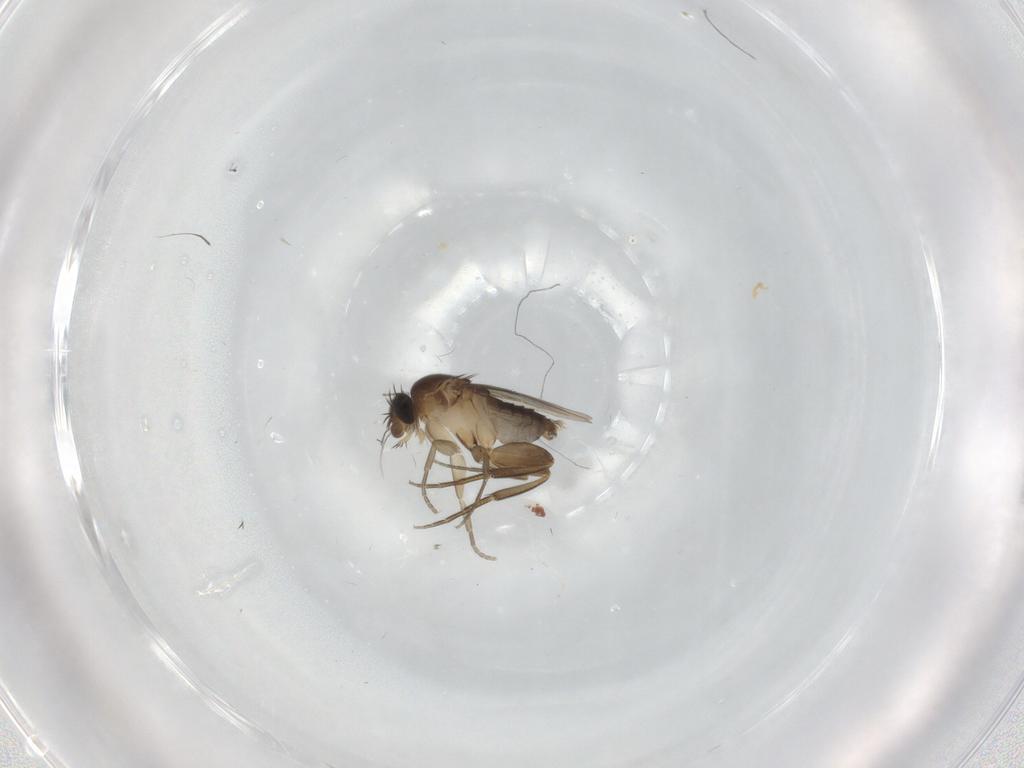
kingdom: Animalia
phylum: Arthropoda
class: Insecta
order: Diptera
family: Phoridae
